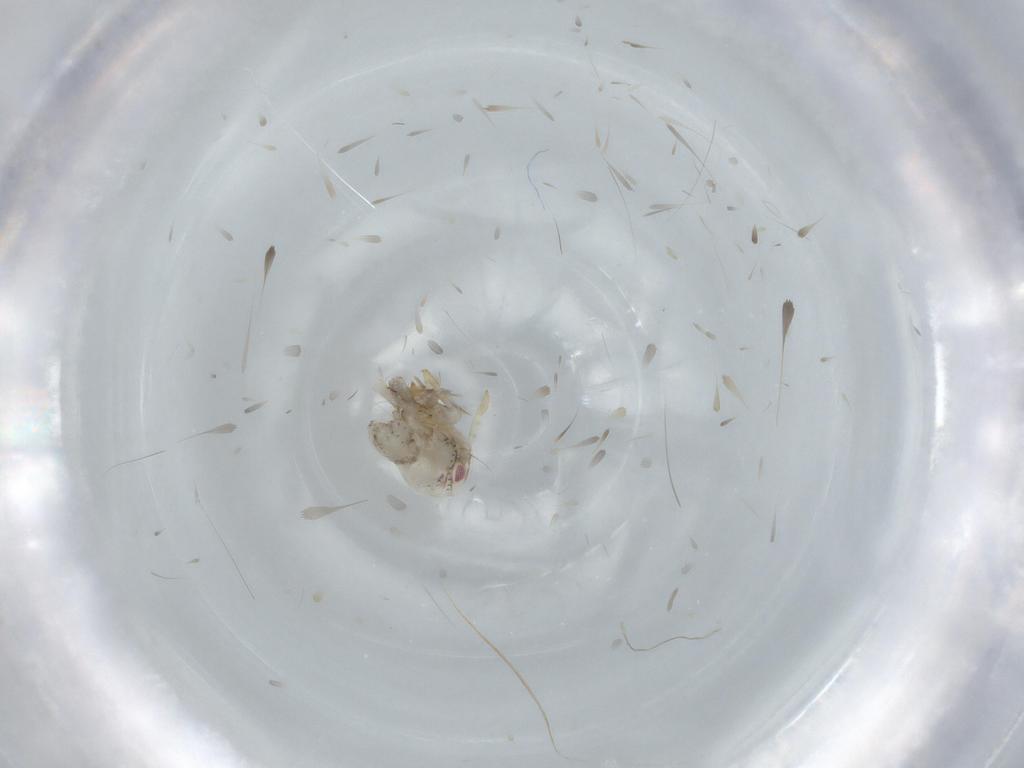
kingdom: Animalia
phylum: Arthropoda
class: Insecta
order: Hemiptera
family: Acanaloniidae
